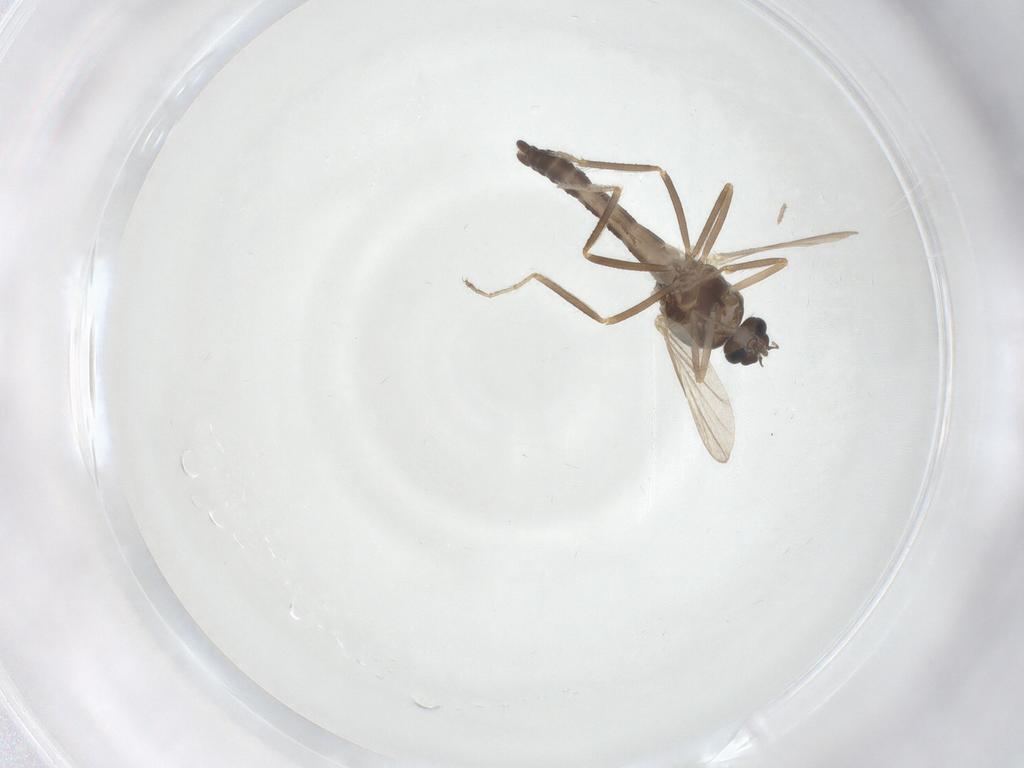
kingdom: Animalia
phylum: Arthropoda
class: Insecta
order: Diptera
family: Ceratopogonidae
